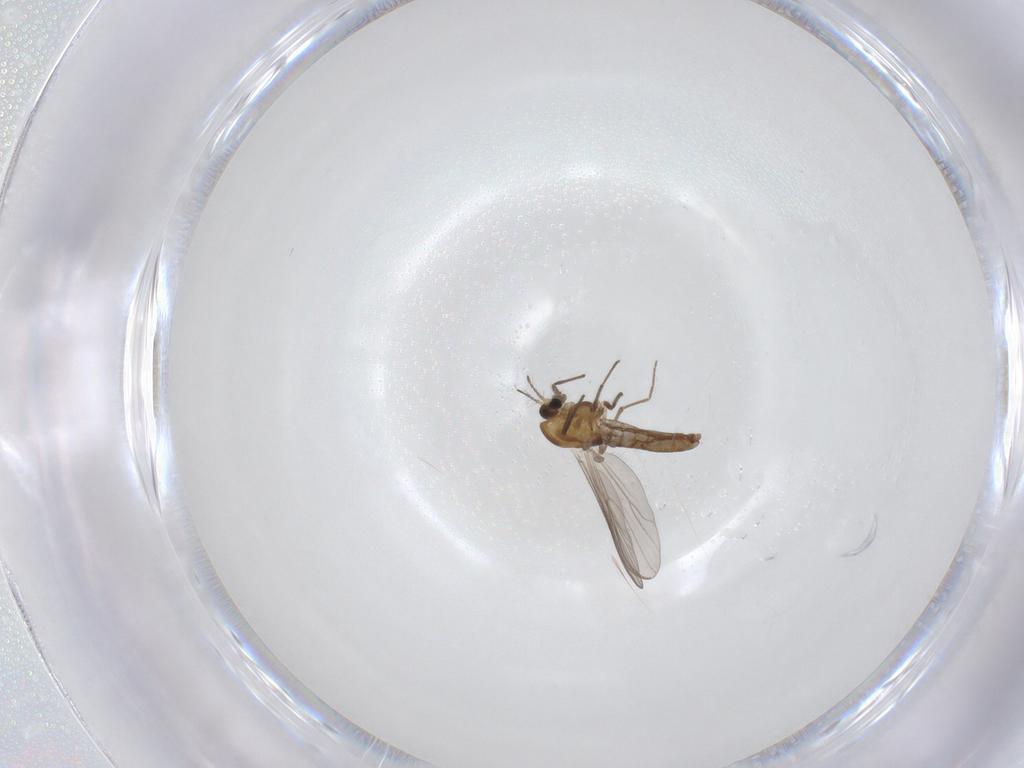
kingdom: Animalia
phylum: Arthropoda
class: Insecta
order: Diptera
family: Chironomidae
